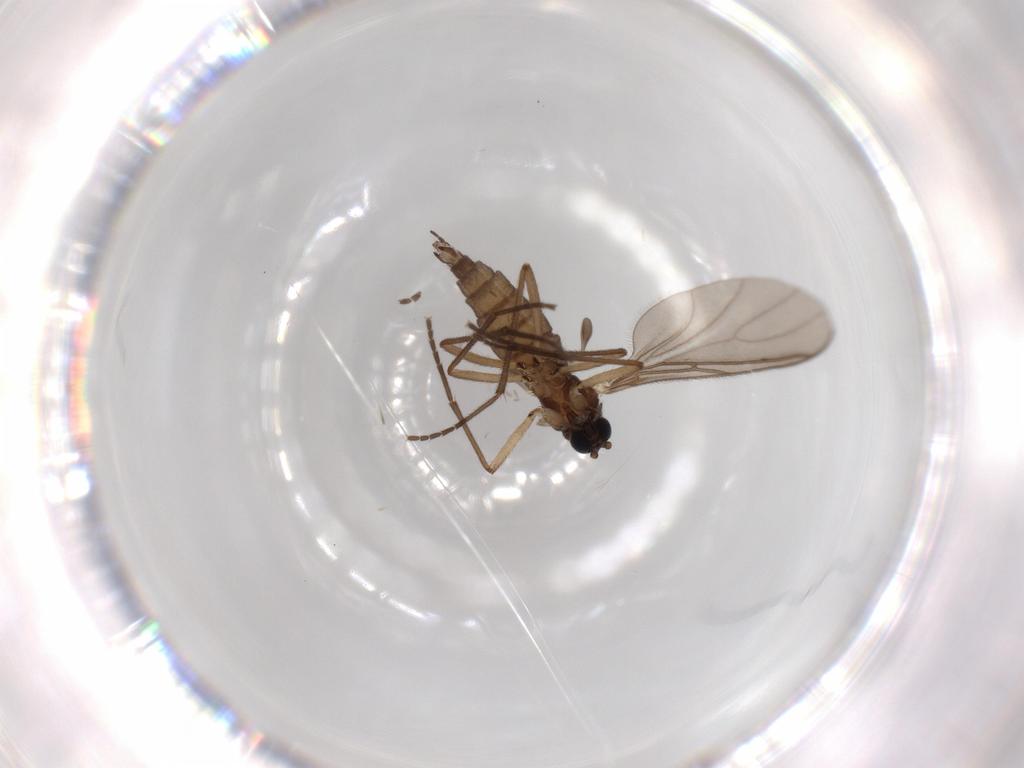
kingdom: Animalia
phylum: Arthropoda
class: Insecta
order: Diptera
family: Sciaridae
